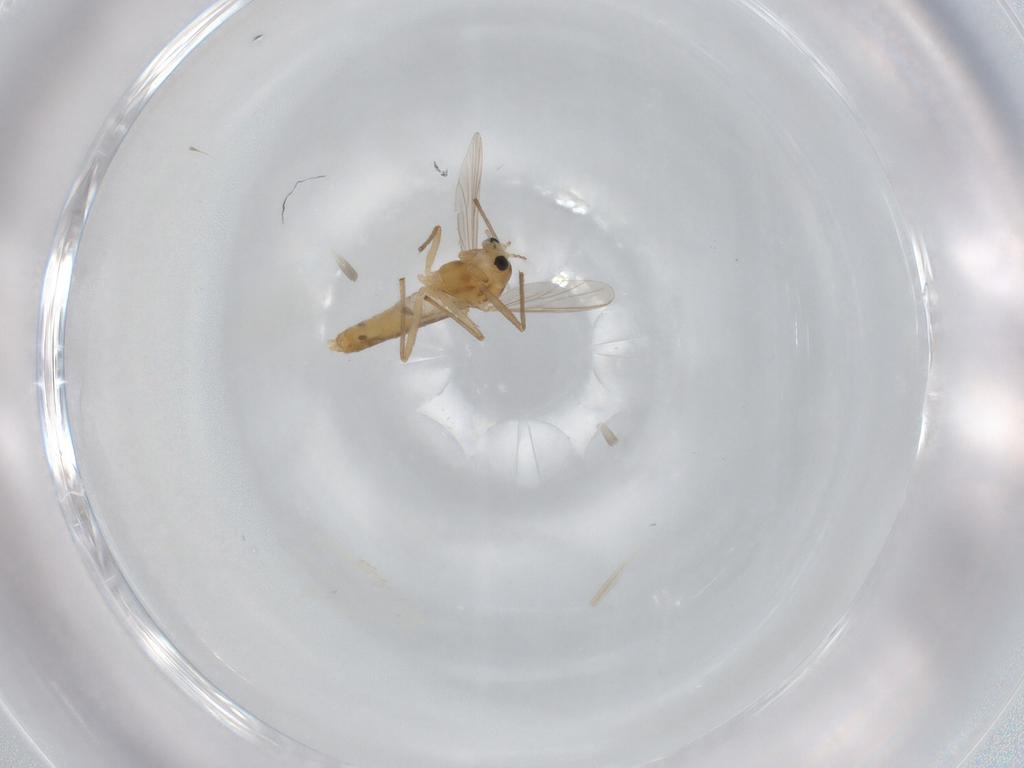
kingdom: Animalia
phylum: Arthropoda
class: Insecta
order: Diptera
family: Chironomidae
